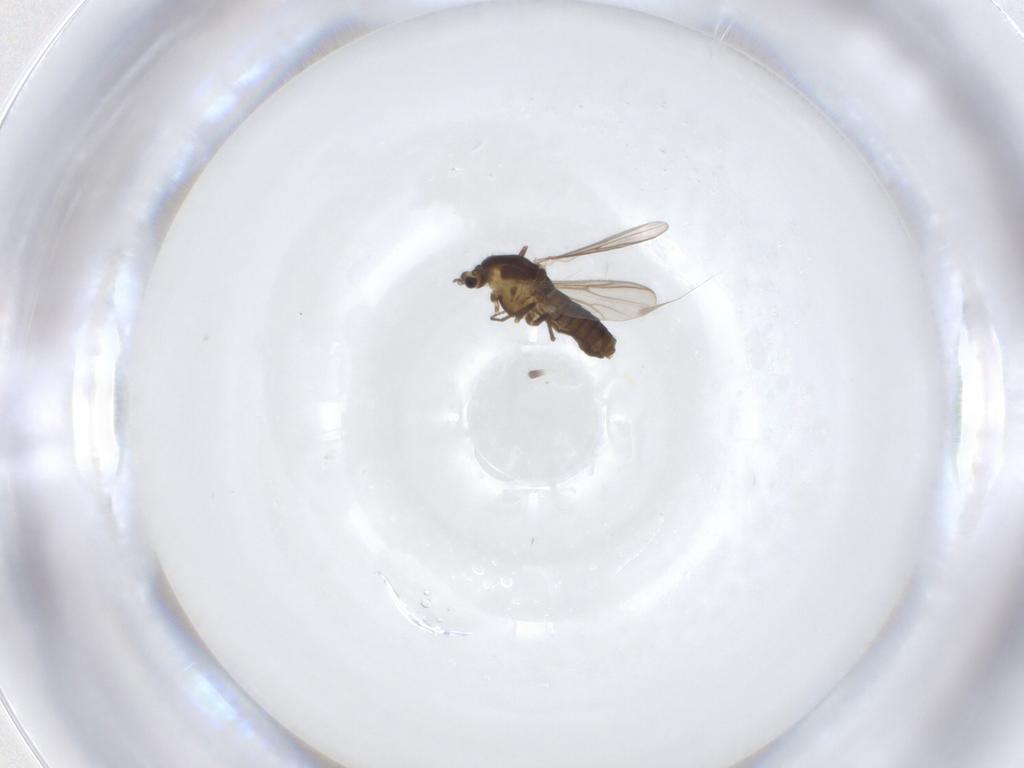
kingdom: Animalia
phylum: Arthropoda
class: Insecta
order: Diptera
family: Chironomidae
